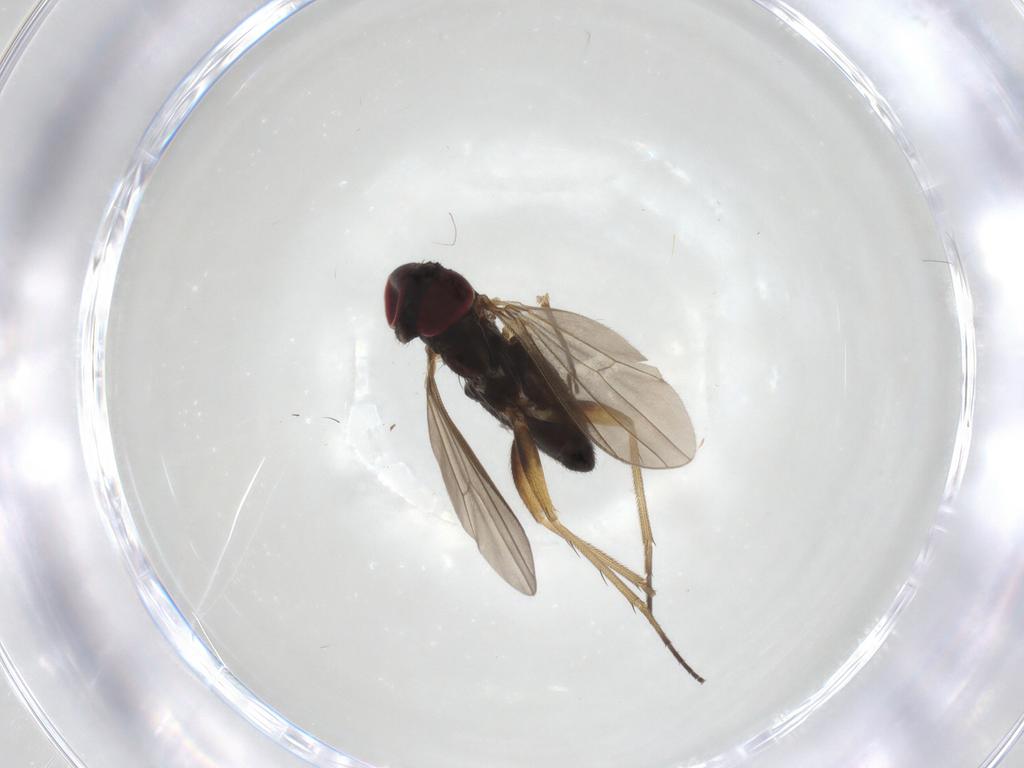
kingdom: Animalia
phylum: Arthropoda
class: Insecta
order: Diptera
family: Dolichopodidae
